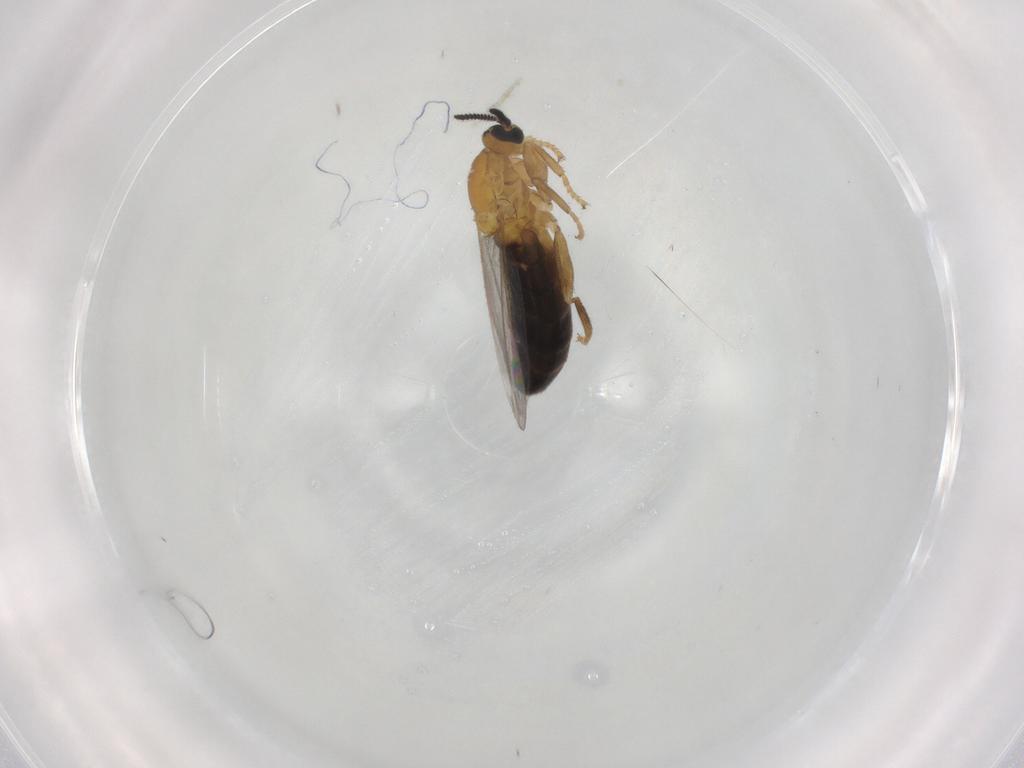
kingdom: Animalia
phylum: Arthropoda
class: Insecta
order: Diptera
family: Scatopsidae
